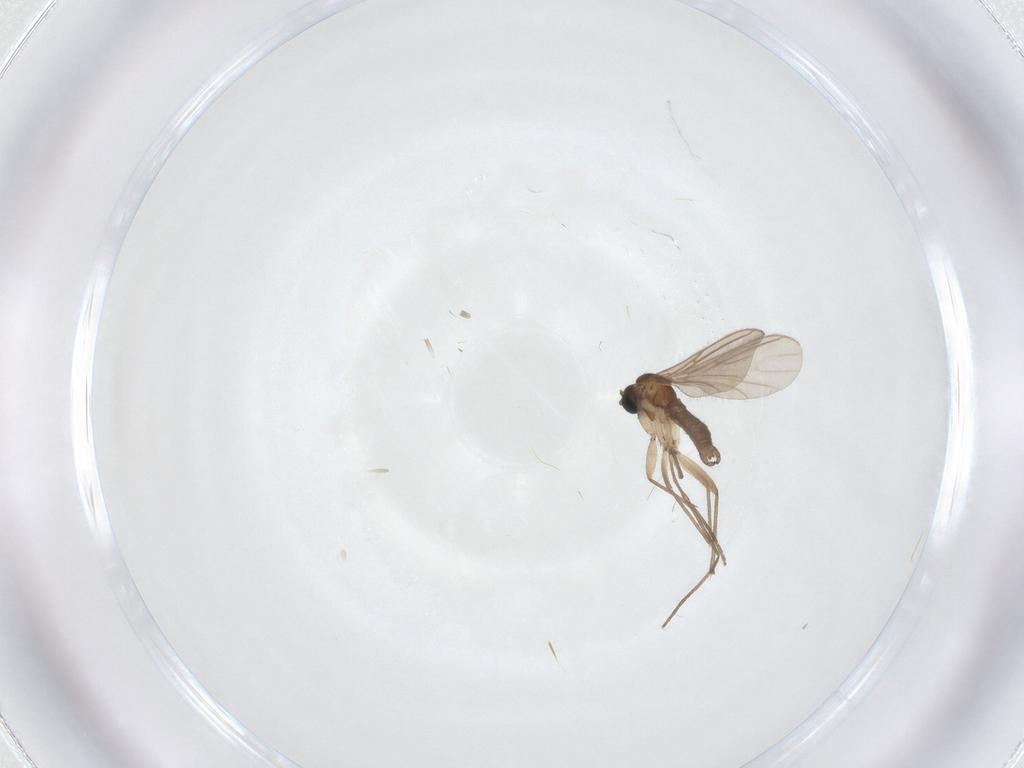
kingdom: Animalia
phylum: Arthropoda
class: Insecta
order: Diptera
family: Sciaridae
